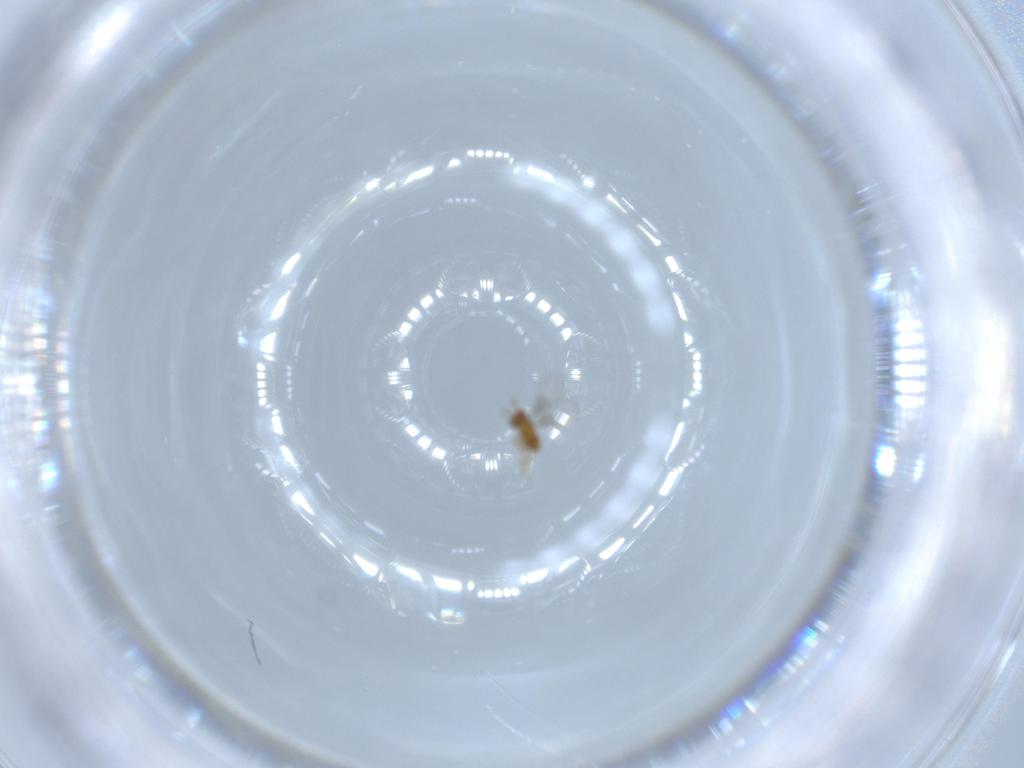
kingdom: Animalia
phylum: Arthropoda
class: Insecta
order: Hymenoptera
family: Trichogrammatidae
